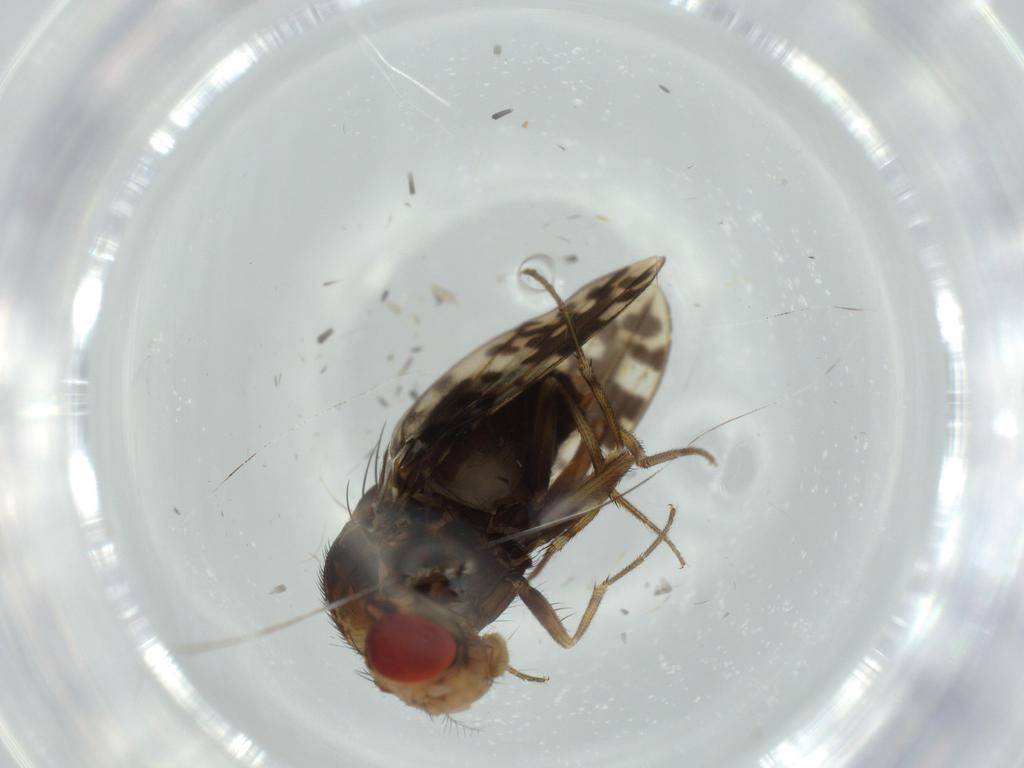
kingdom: Animalia
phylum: Arthropoda
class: Insecta
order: Diptera
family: Drosophilidae
